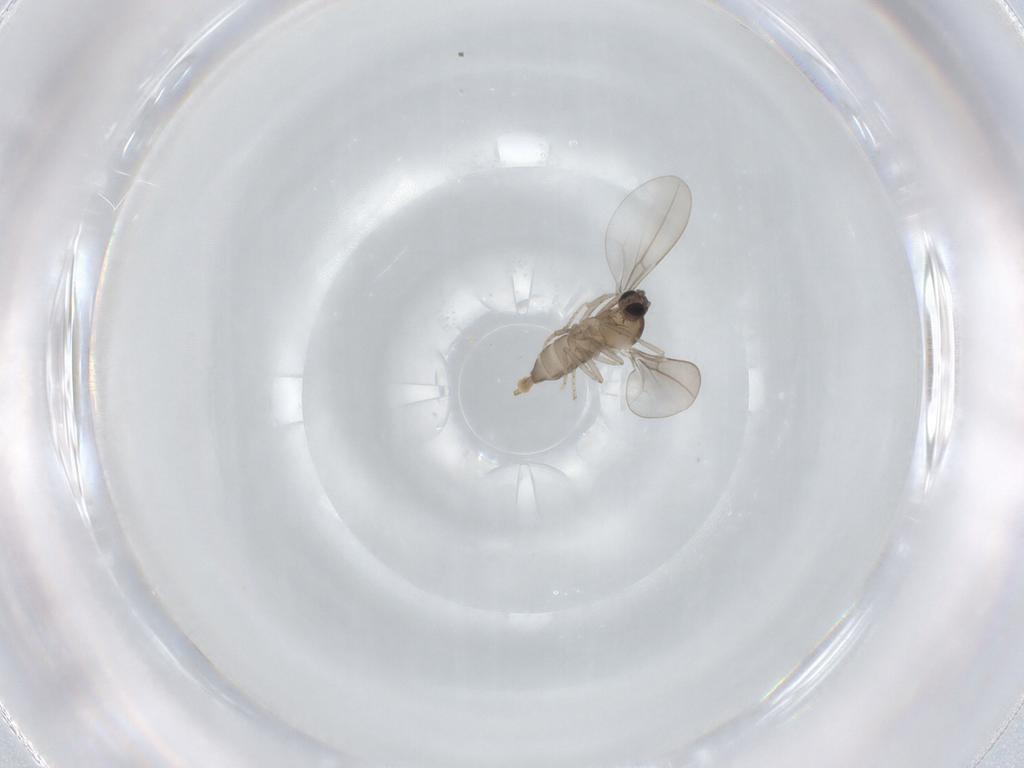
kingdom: Animalia
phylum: Arthropoda
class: Insecta
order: Diptera
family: Cecidomyiidae
